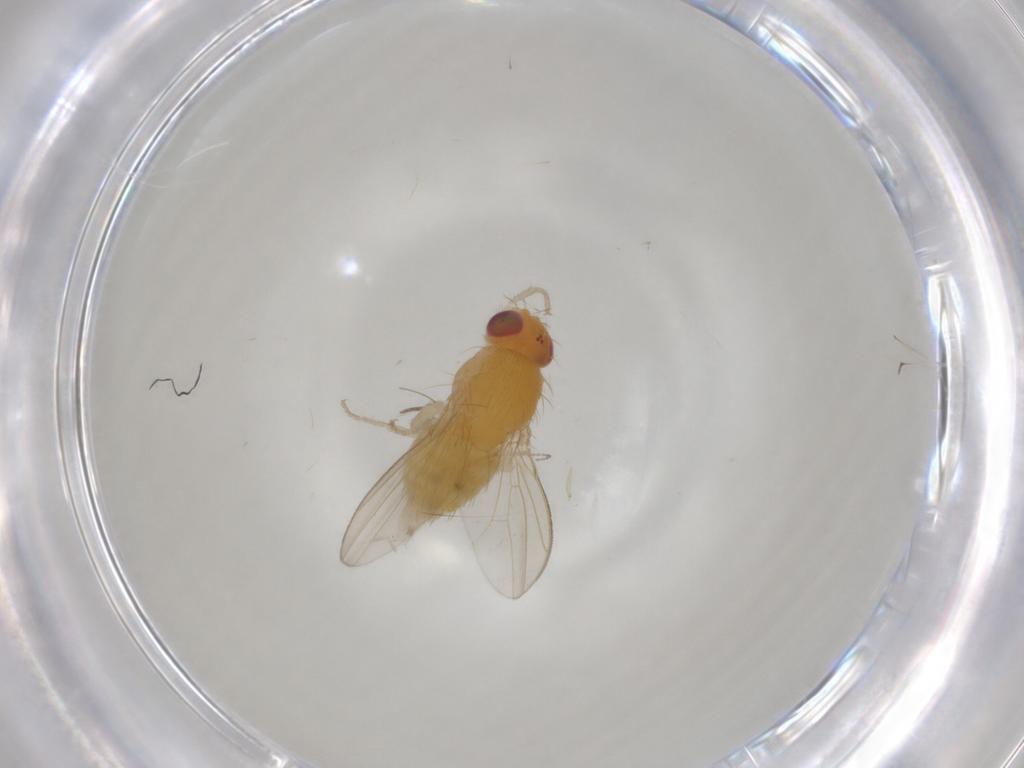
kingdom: Animalia
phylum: Arthropoda
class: Insecta
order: Diptera
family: Drosophilidae
